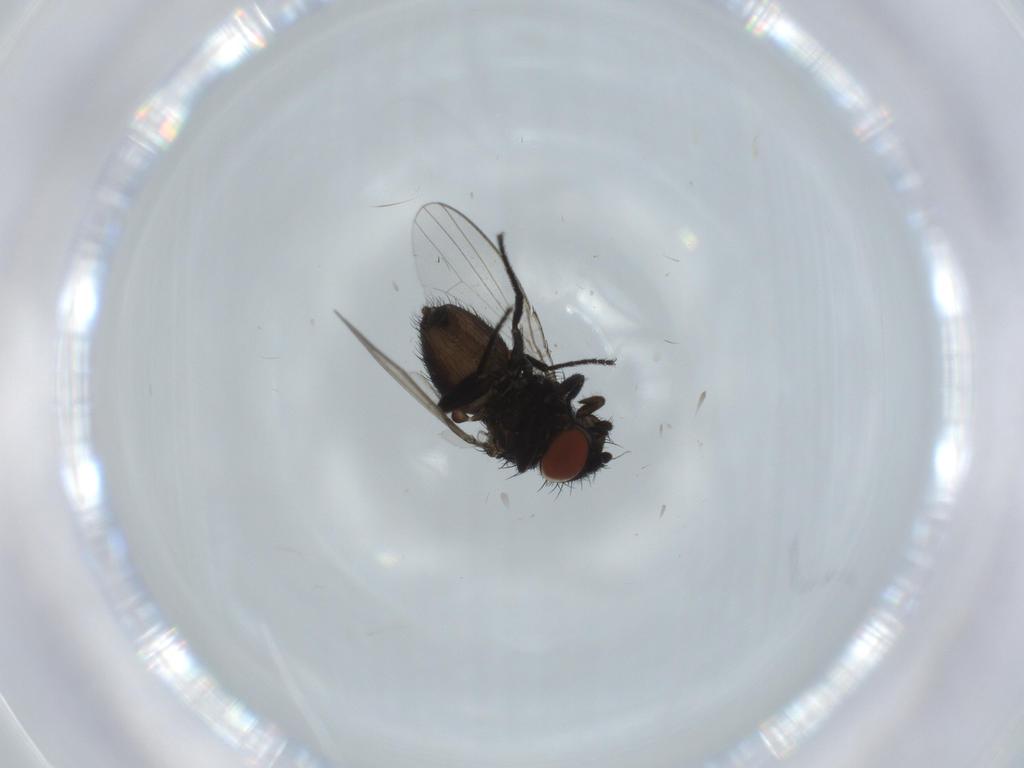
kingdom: Animalia
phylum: Arthropoda
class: Insecta
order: Diptera
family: Milichiidae
